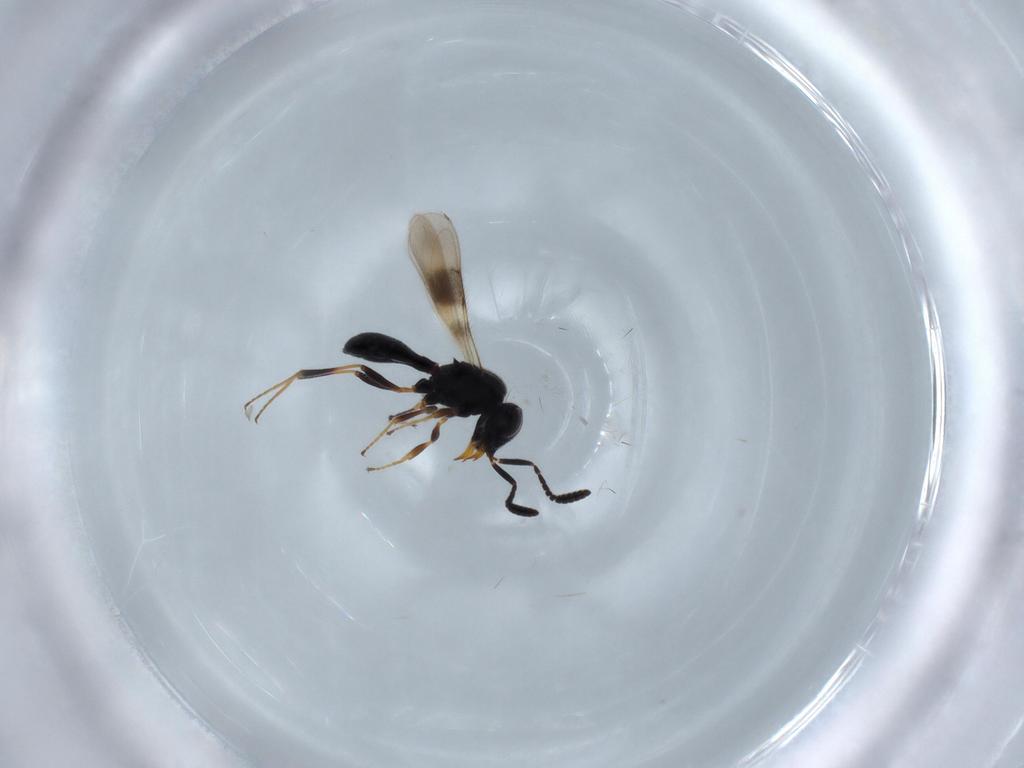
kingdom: Animalia
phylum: Arthropoda
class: Insecta
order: Hymenoptera
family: Scelionidae
